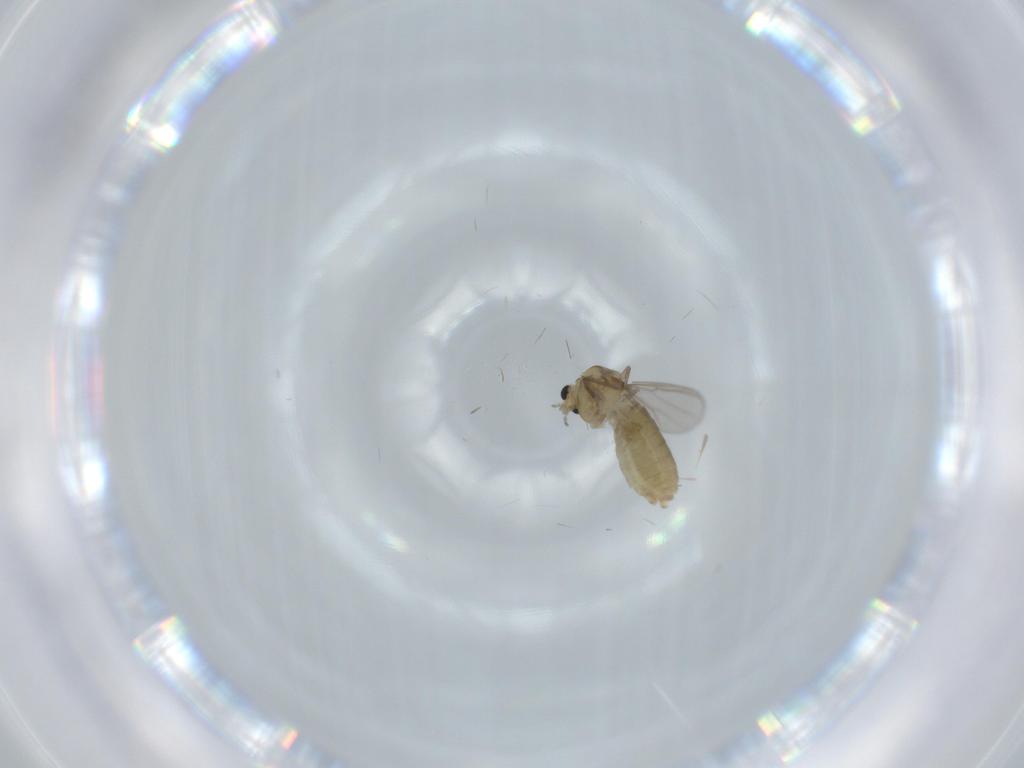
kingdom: Animalia
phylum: Arthropoda
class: Insecta
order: Diptera
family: Chironomidae
